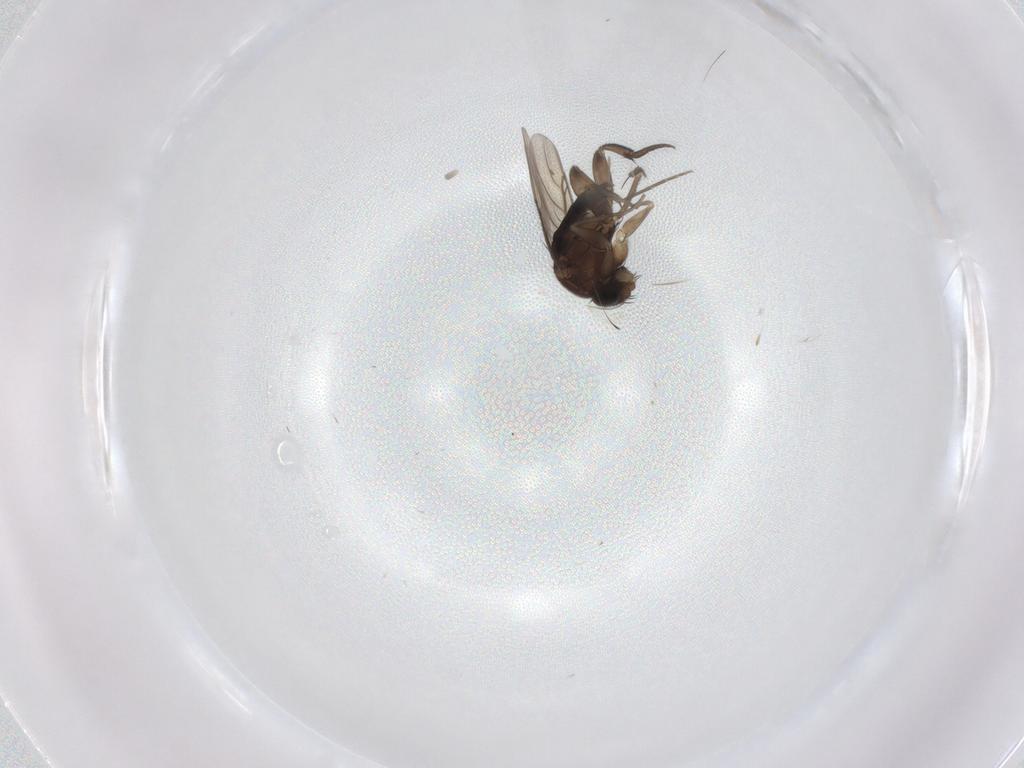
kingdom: Animalia
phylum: Arthropoda
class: Insecta
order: Diptera
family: Phoridae
